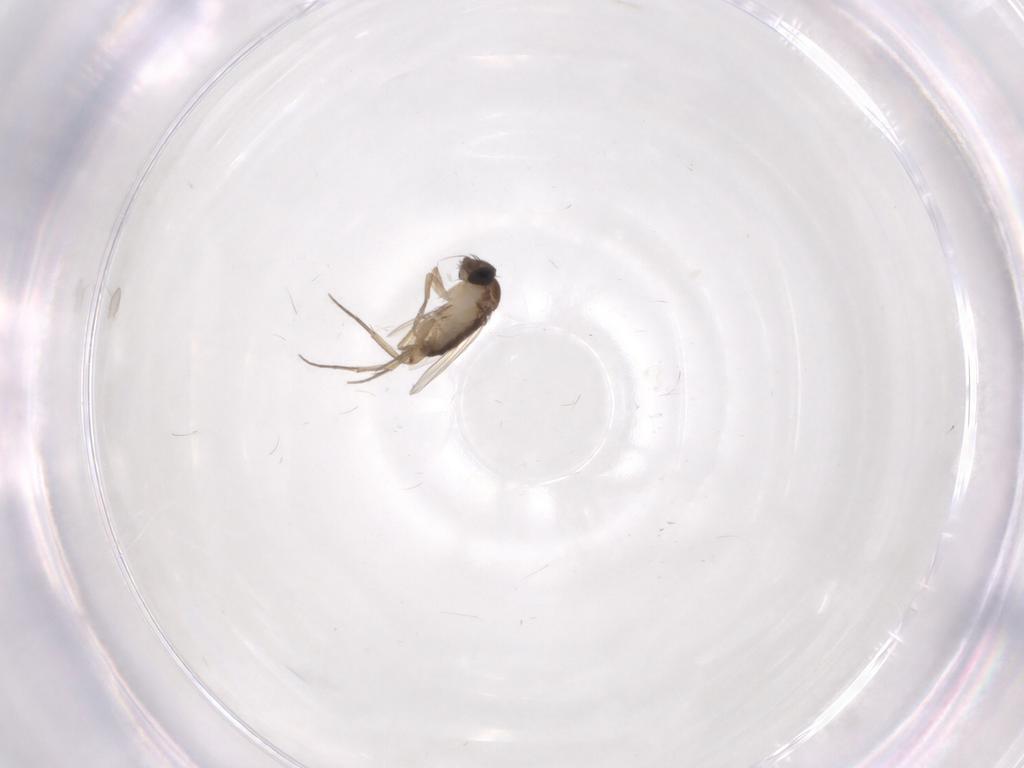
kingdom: Animalia
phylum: Arthropoda
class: Insecta
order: Diptera
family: Phoridae
